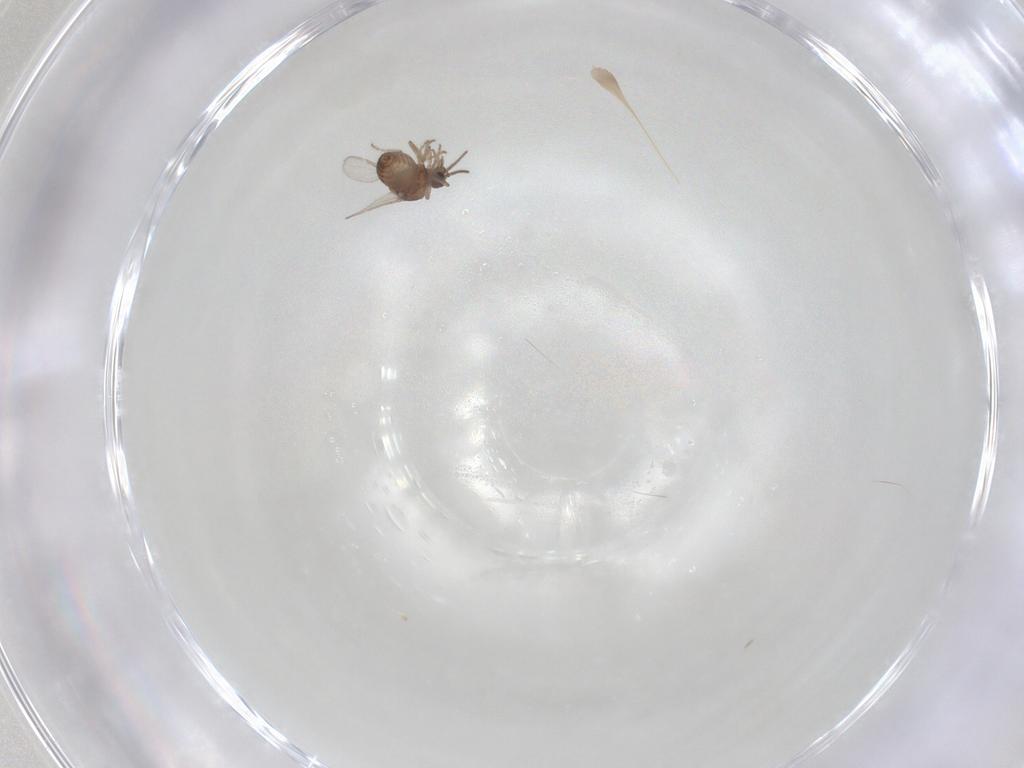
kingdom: Animalia
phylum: Arthropoda
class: Insecta
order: Diptera
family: Ceratopogonidae
